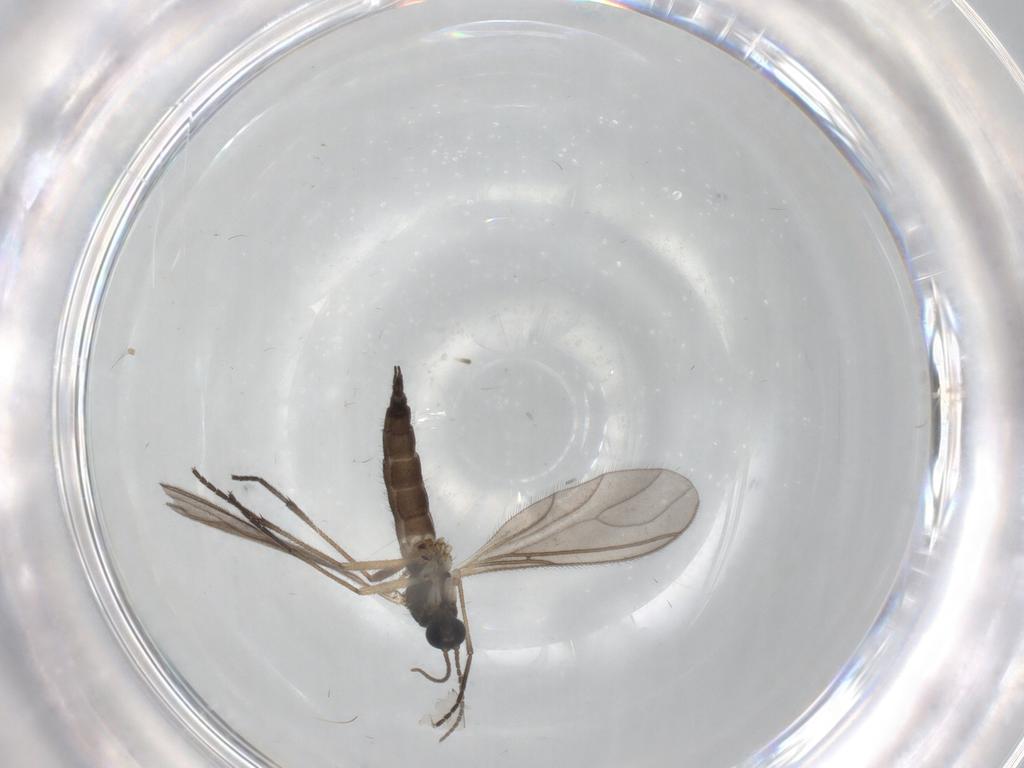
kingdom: Animalia
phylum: Arthropoda
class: Insecta
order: Diptera
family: Sciaridae
